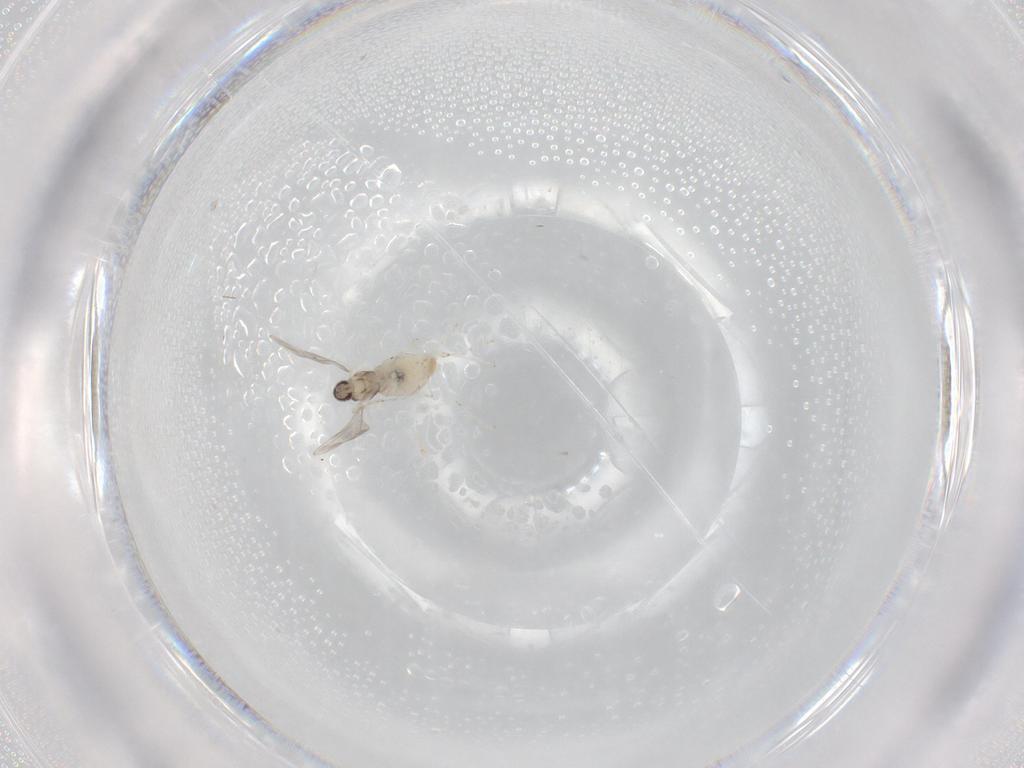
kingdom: Animalia
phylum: Arthropoda
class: Insecta
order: Diptera
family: Cecidomyiidae
